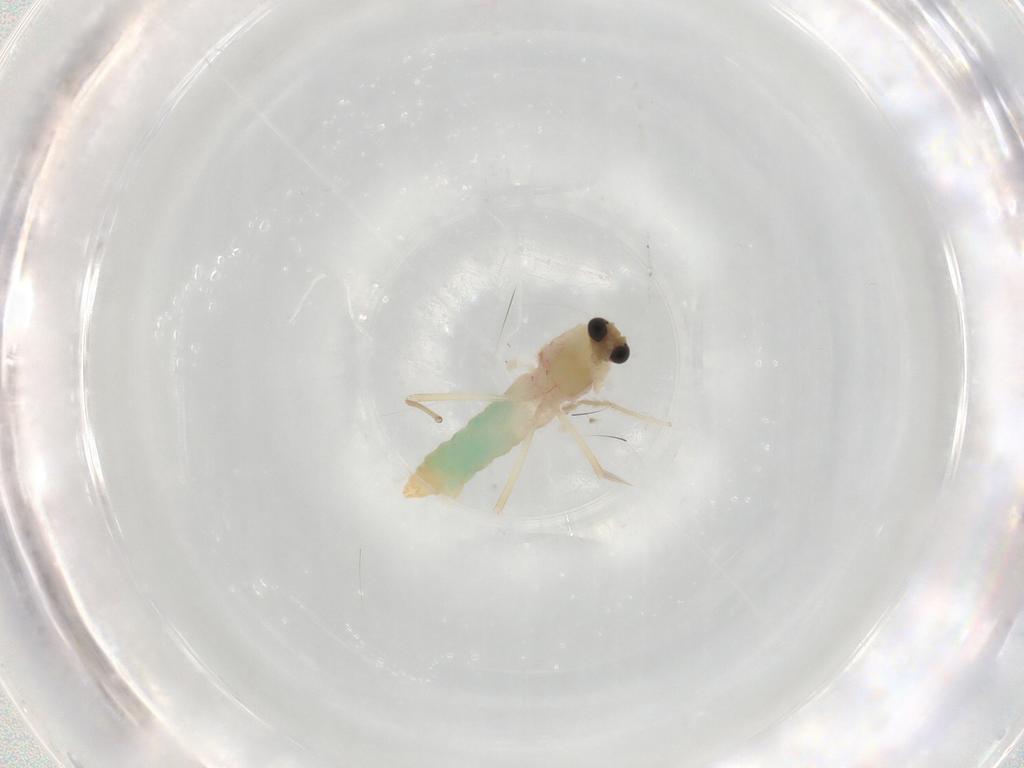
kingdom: Animalia
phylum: Arthropoda
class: Insecta
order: Diptera
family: Chironomidae
